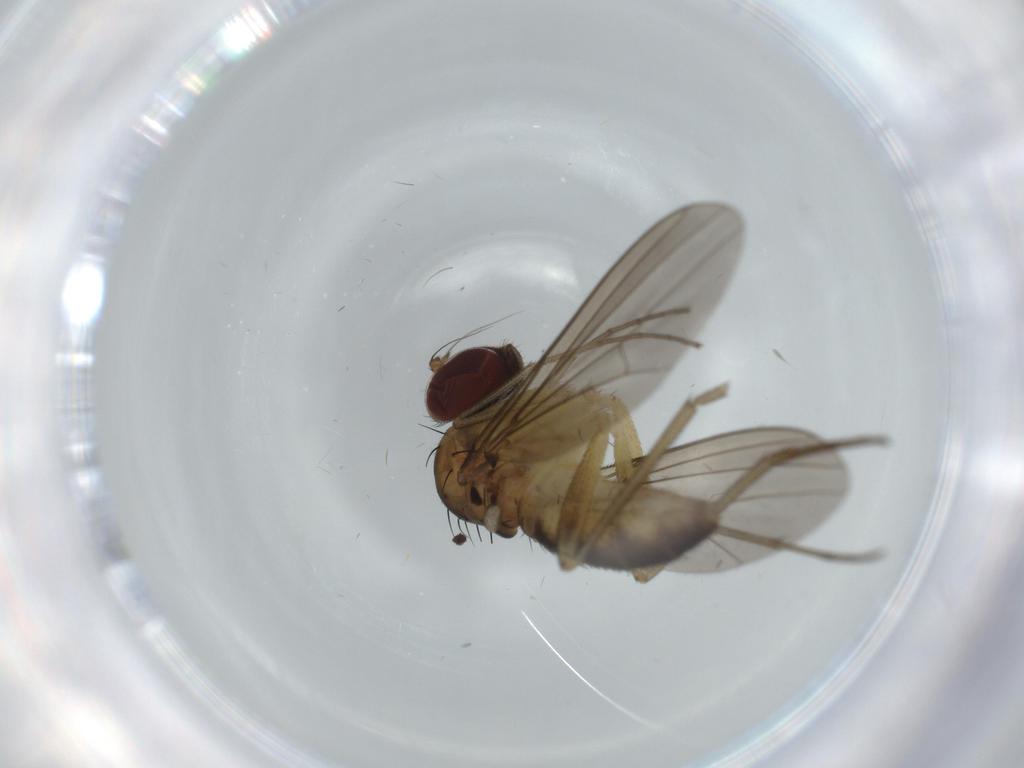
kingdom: Animalia
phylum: Arthropoda
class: Insecta
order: Diptera
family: Dolichopodidae
